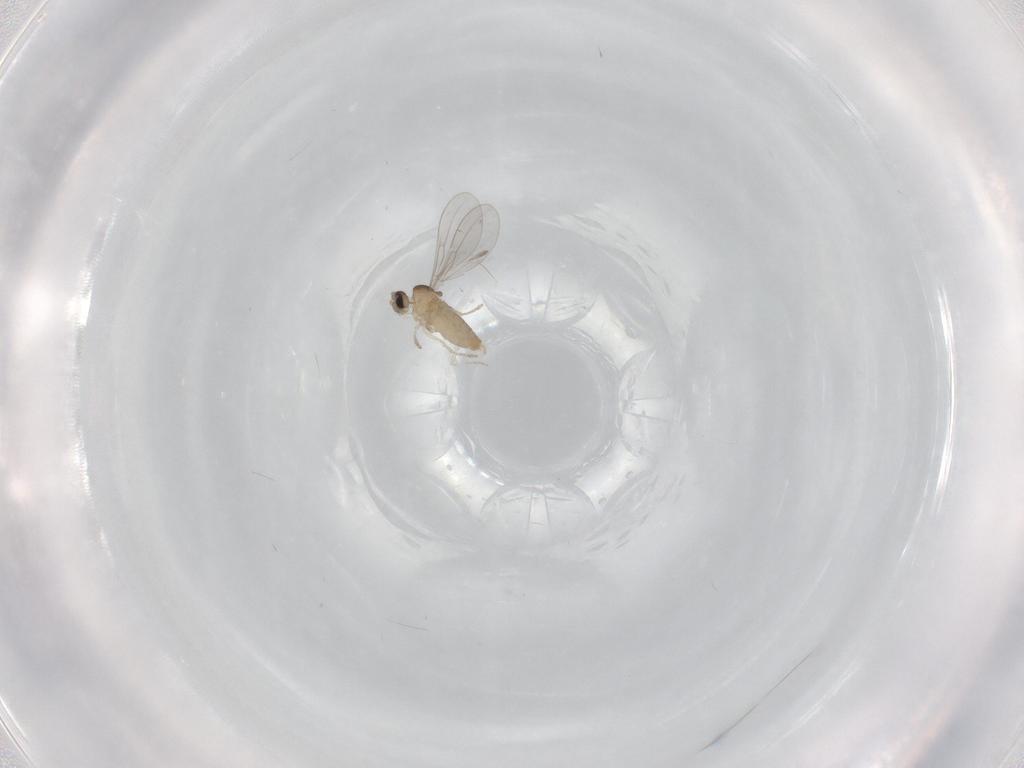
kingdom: Animalia
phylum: Arthropoda
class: Insecta
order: Diptera
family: Cecidomyiidae
